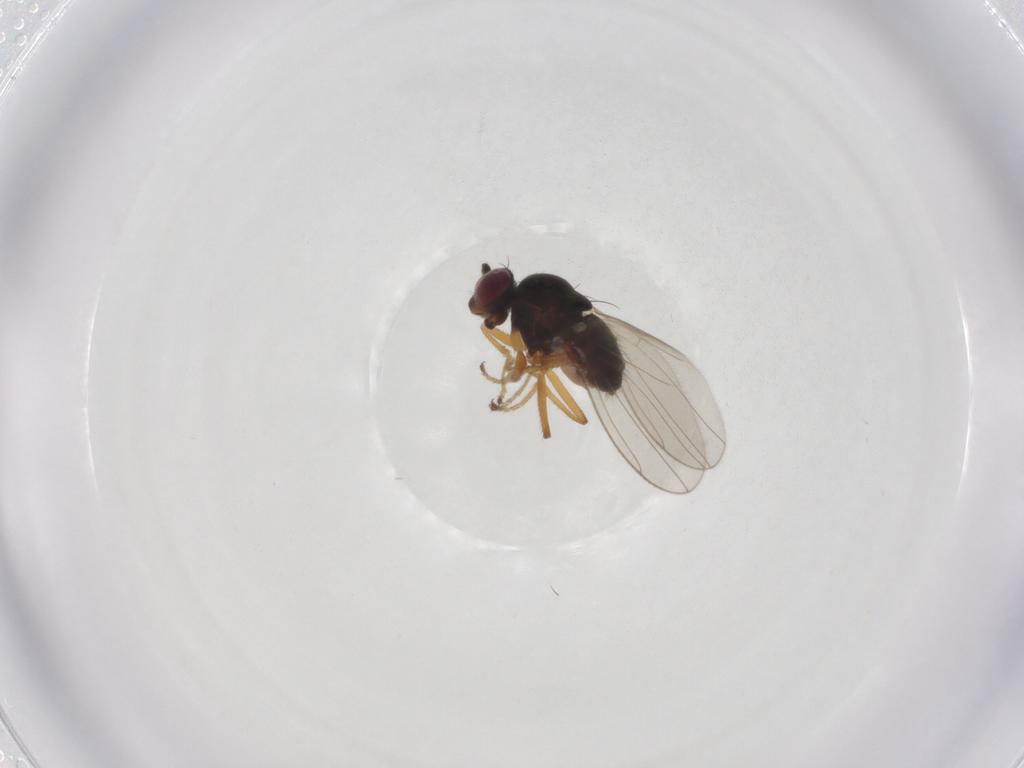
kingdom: Animalia
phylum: Arthropoda
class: Insecta
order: Diptera
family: Ephydridae
